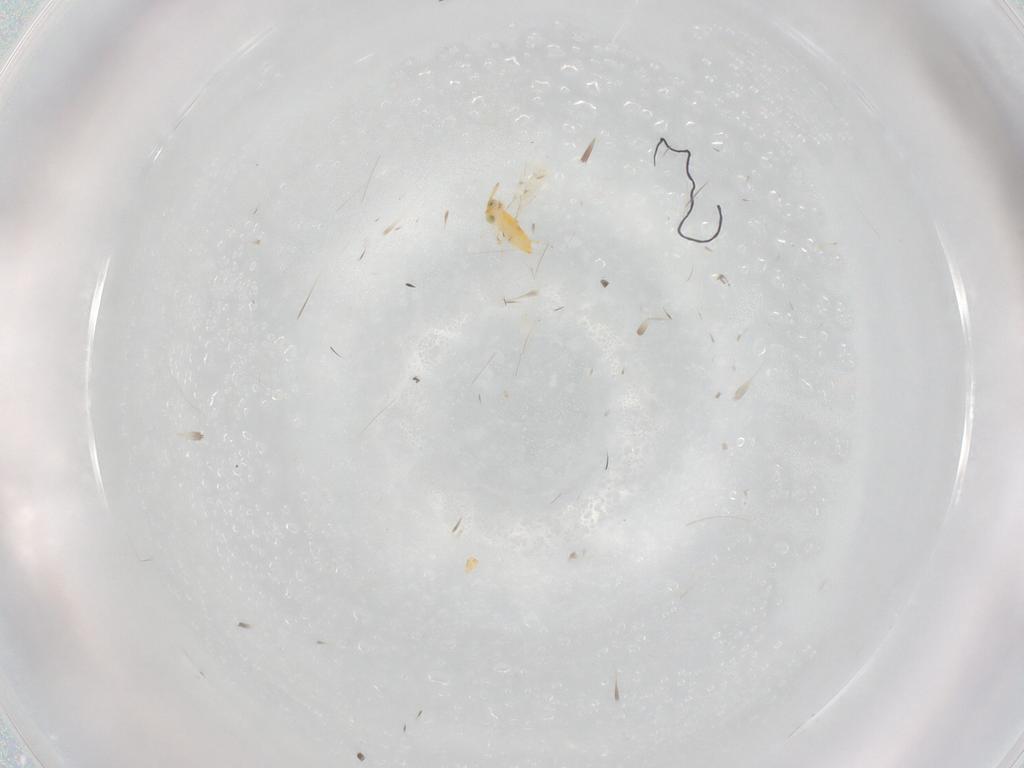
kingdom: Animalia
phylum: Arthropoda
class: Insecta
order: Hymenoptera
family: Aphelinidae
